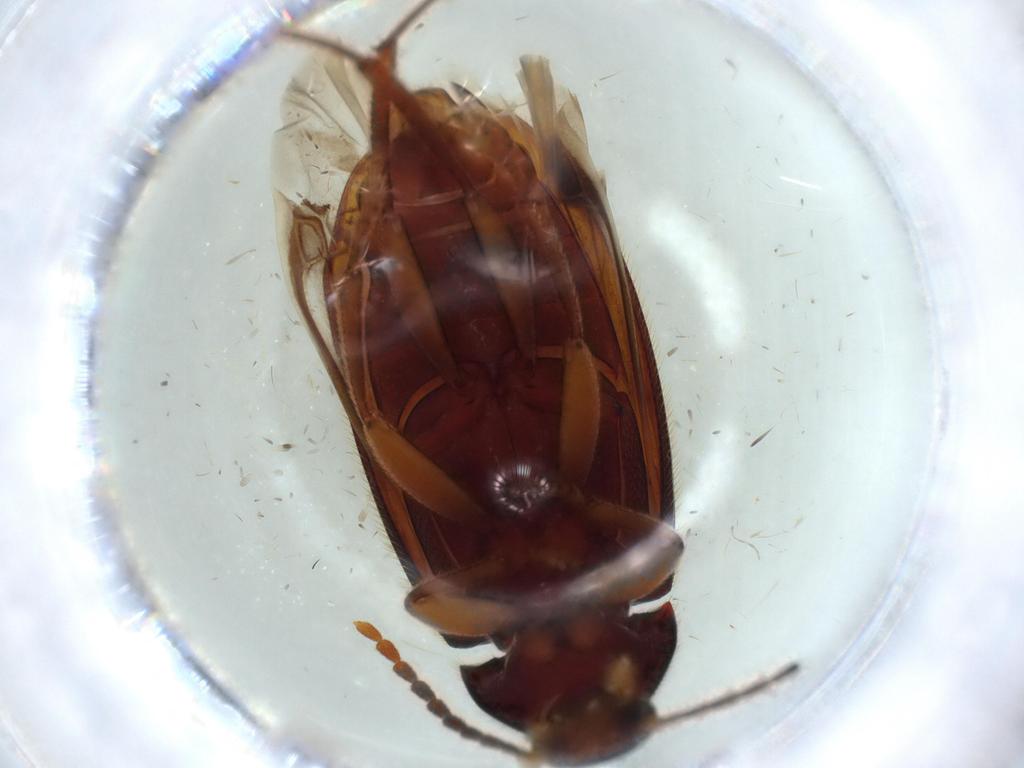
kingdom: Animalia
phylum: Arthropoda
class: Insecta
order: Coleoptera
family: Tenebrionidae
